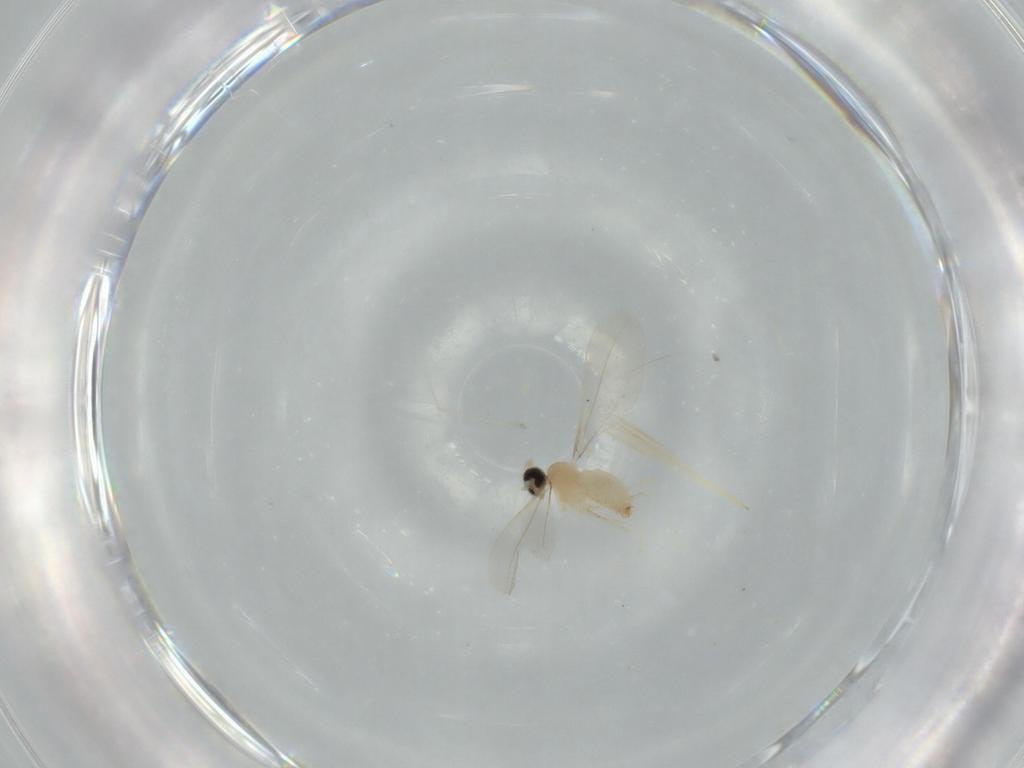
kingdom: Animalia
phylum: Arthropoda
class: Insecta
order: Diptera
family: Cecidomyiidae
